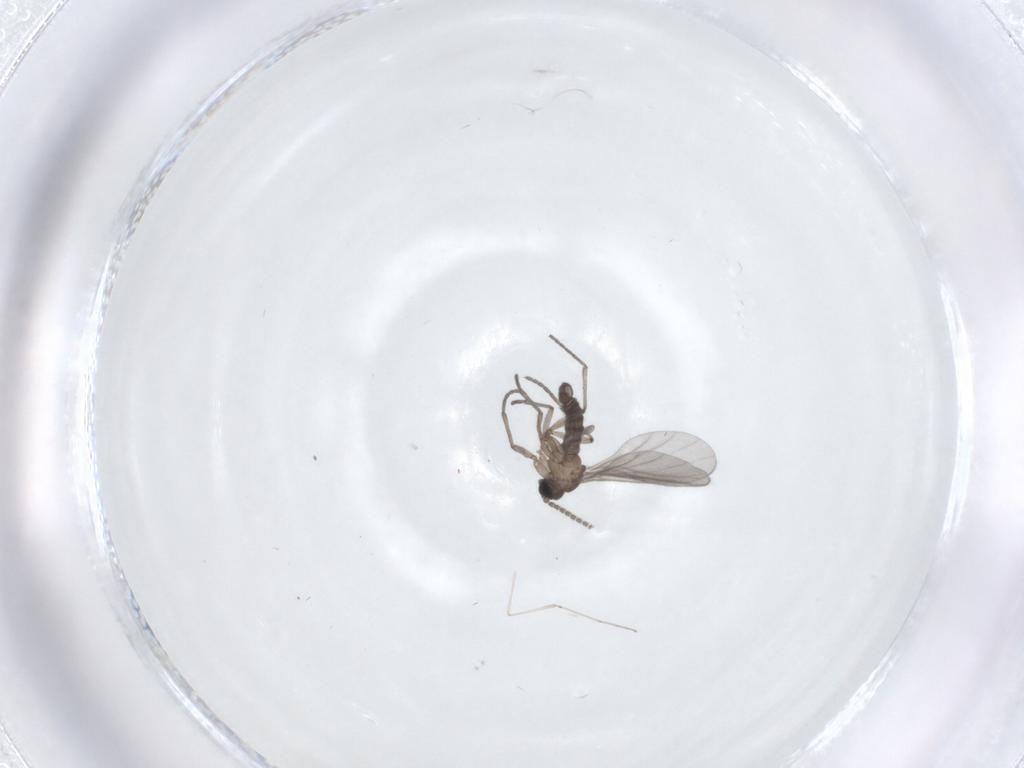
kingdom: Animalia
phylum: Arthropoda
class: Insecta
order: Diptera
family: Sciaridae
